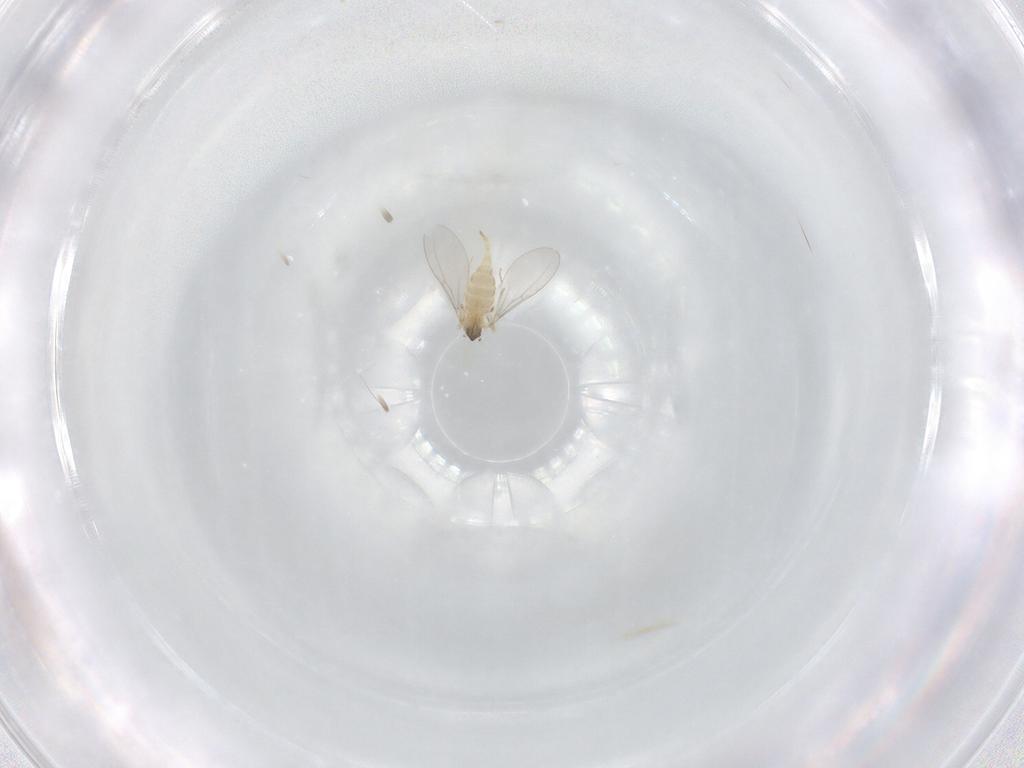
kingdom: Animalia
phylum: Arthropoda
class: Insecta
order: Diptera
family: Cecidomyiidae
